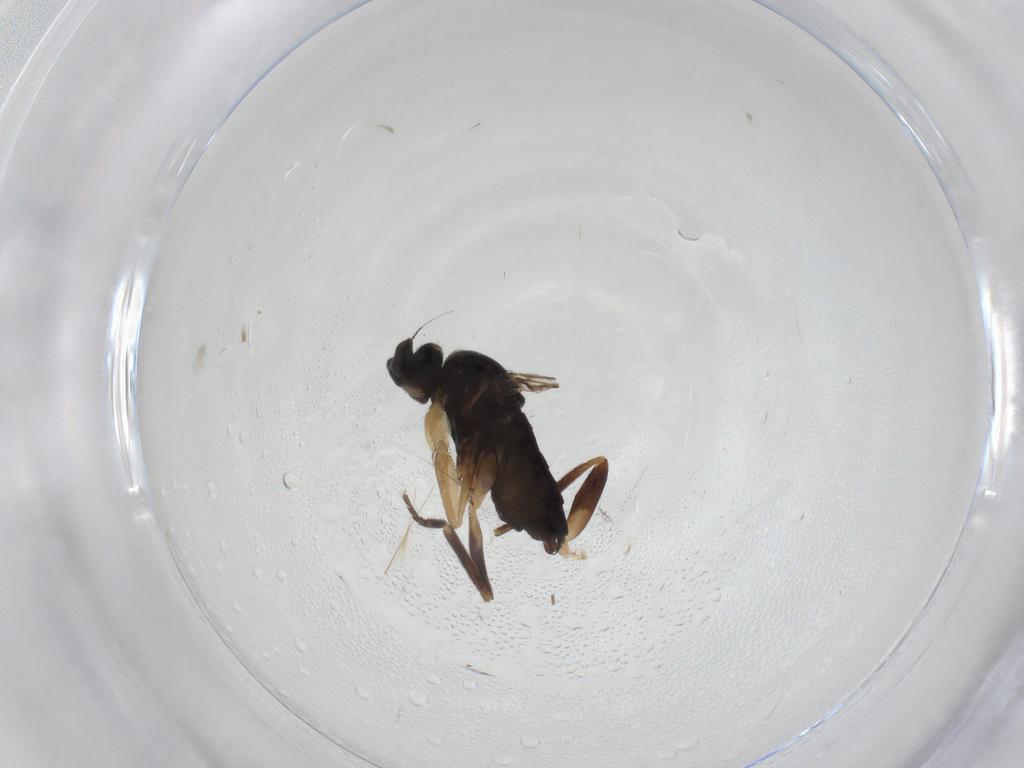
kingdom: Animalia
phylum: Arthropoda
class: Insecta
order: Diptera
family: Phoridae
